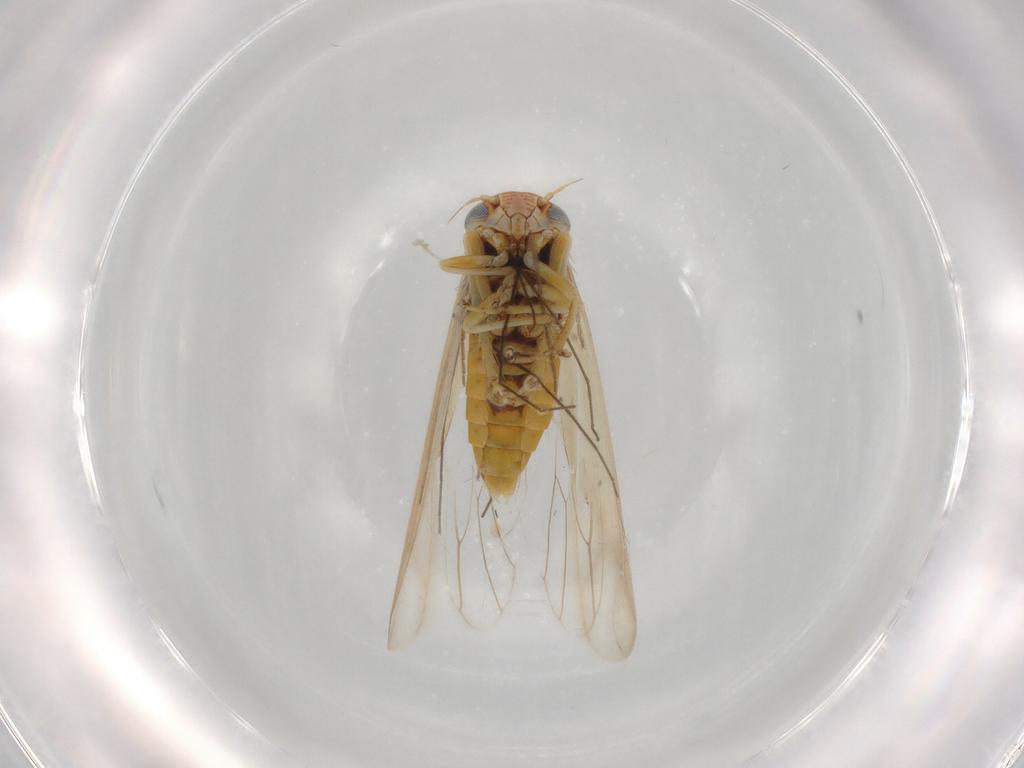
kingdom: Animalia
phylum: Arthropoda
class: Insecta
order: Hemiptera
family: Cicadellidae
